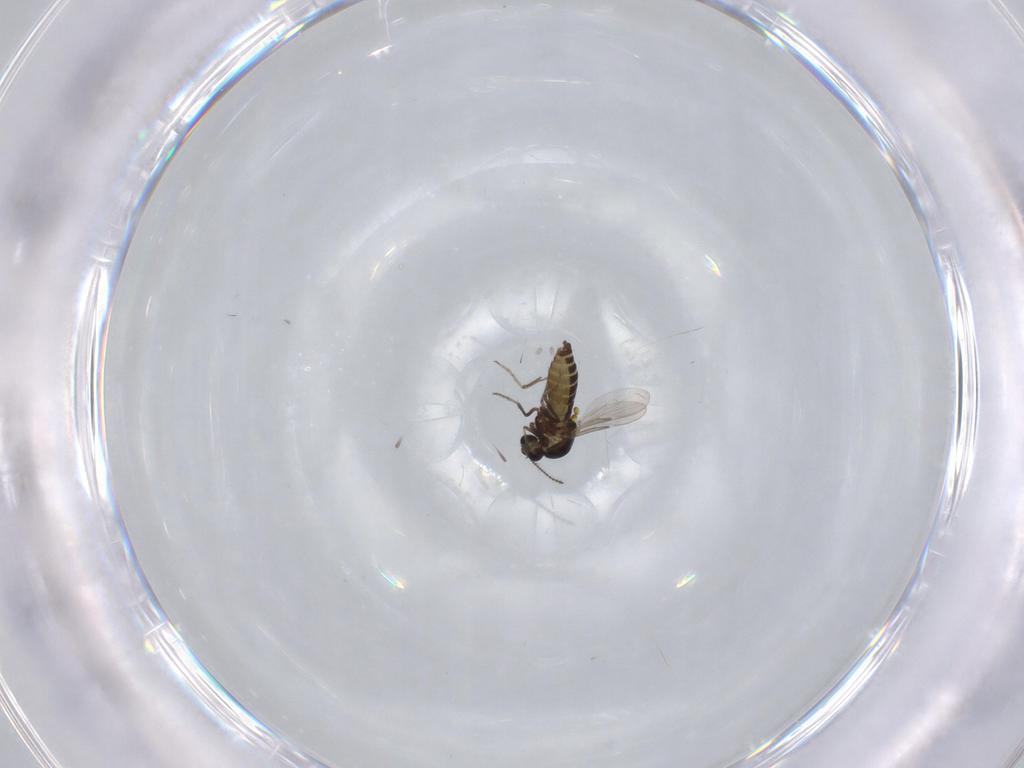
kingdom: Animalia
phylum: Arthropoda
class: Insecta
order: Diptera
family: Ceratopogonidae
